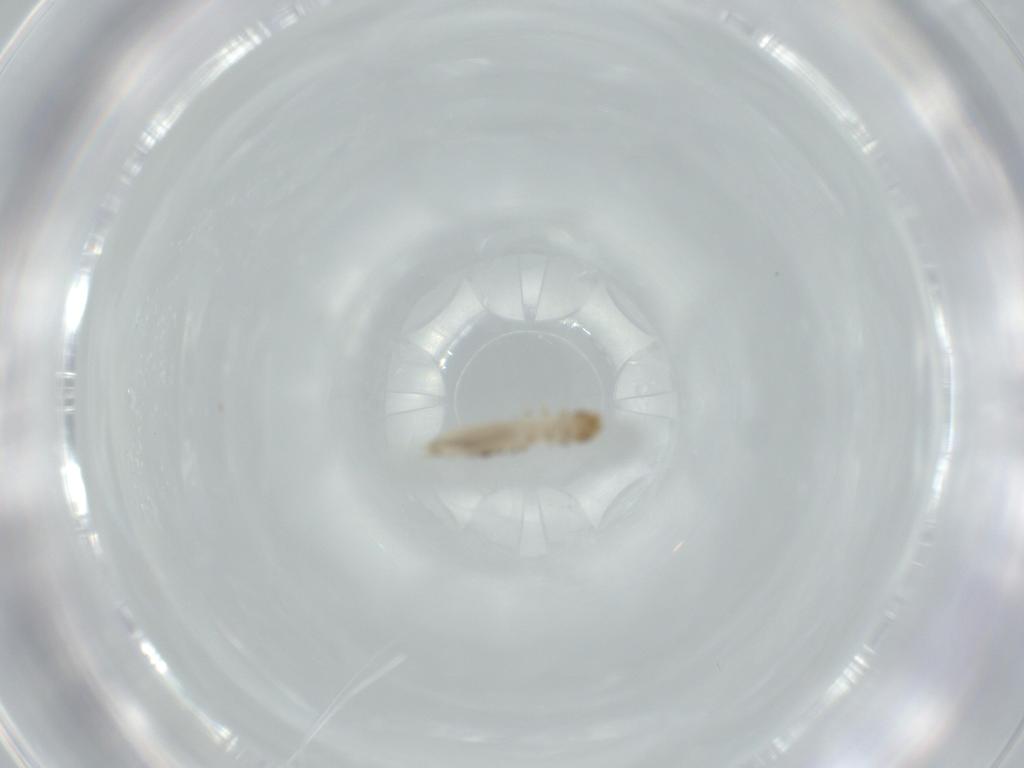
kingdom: Animalia
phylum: Arthropoda
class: Insecta
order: Coleoptera
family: Nitidulidae
